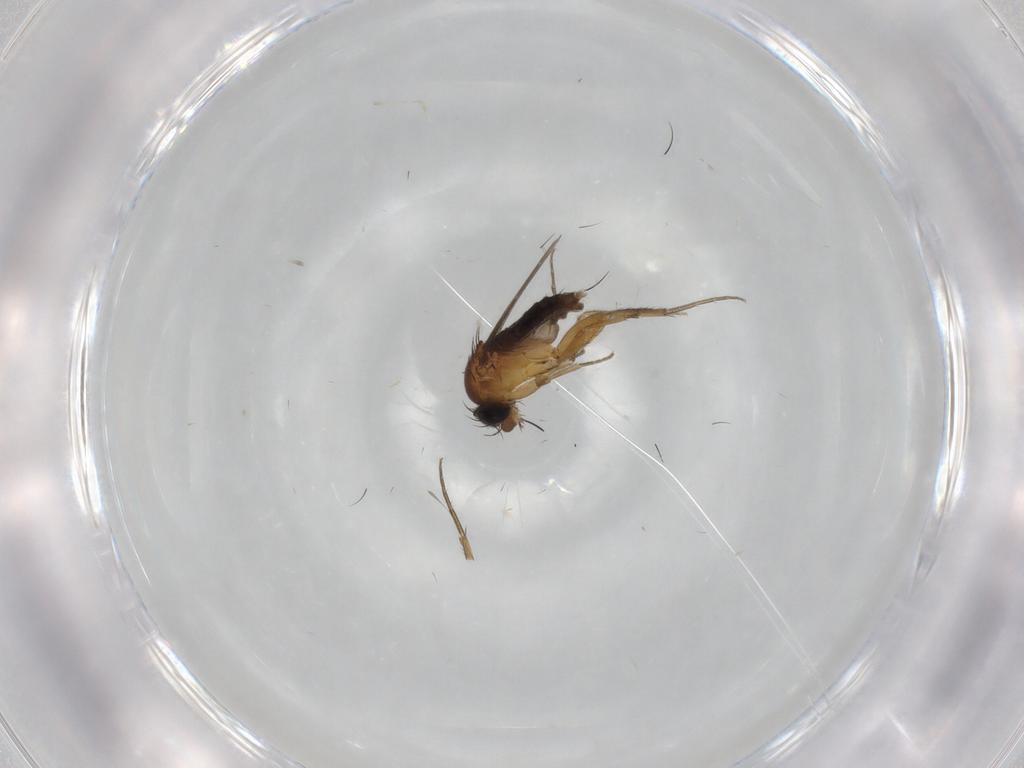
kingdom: Animalia
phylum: Arthropoda
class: Insecta
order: Diptera
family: Phoridae
